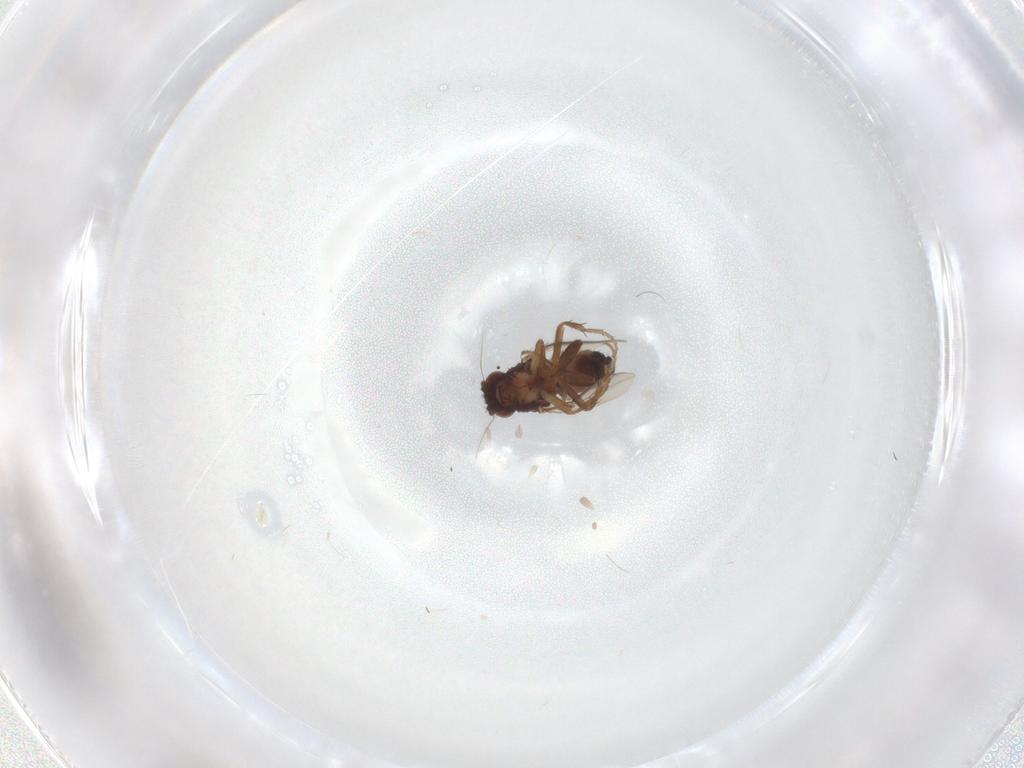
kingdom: Animalia
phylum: Arthropoda
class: Insecta
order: Diptera
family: Sphaeroceridae
